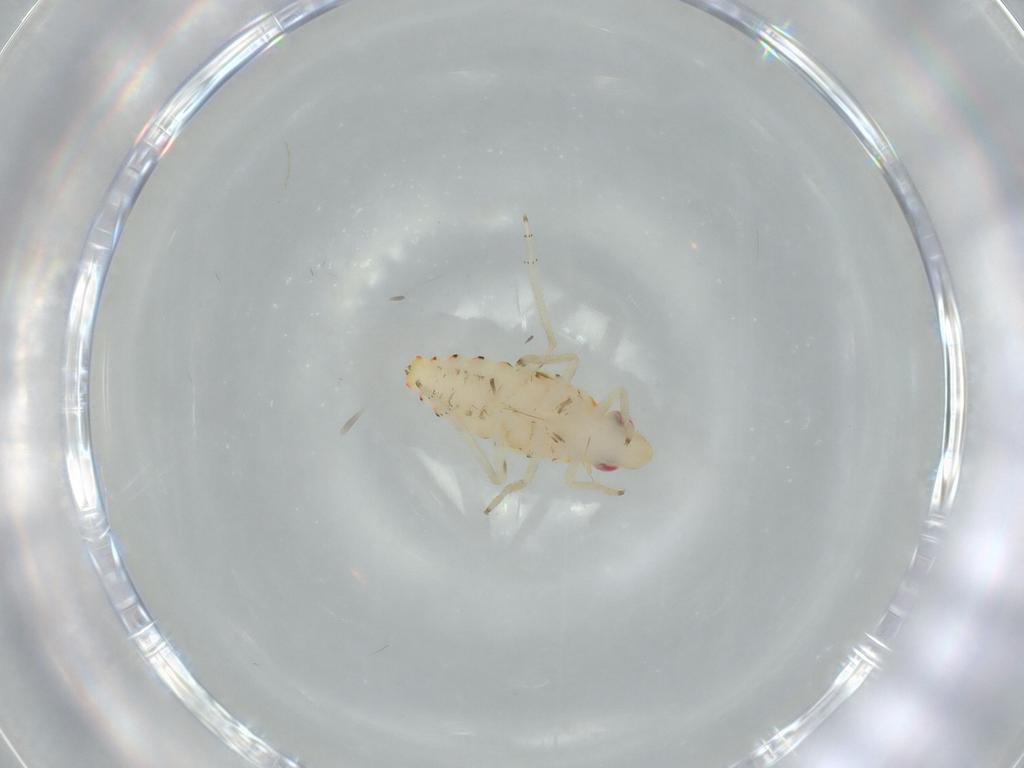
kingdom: Animalia
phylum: Arthropoda
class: Insecta
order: Hemiptera
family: Tropiduchidae
